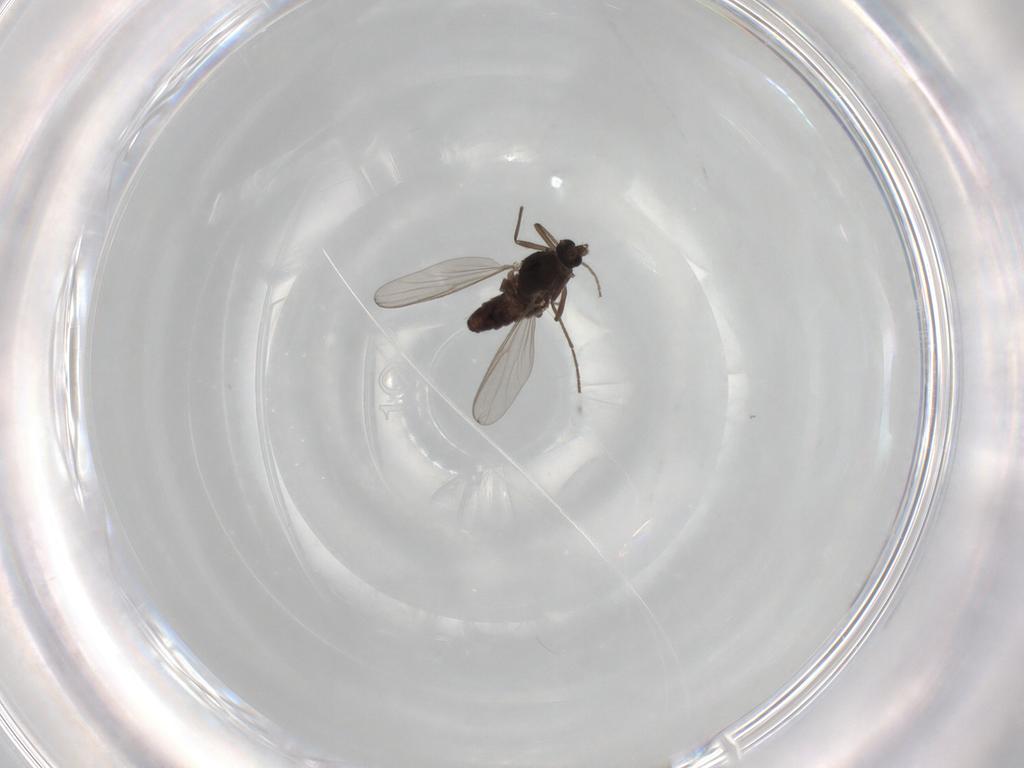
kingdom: Animalia
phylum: Arthropoda
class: Insecta
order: Diptera
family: Chironomidae
